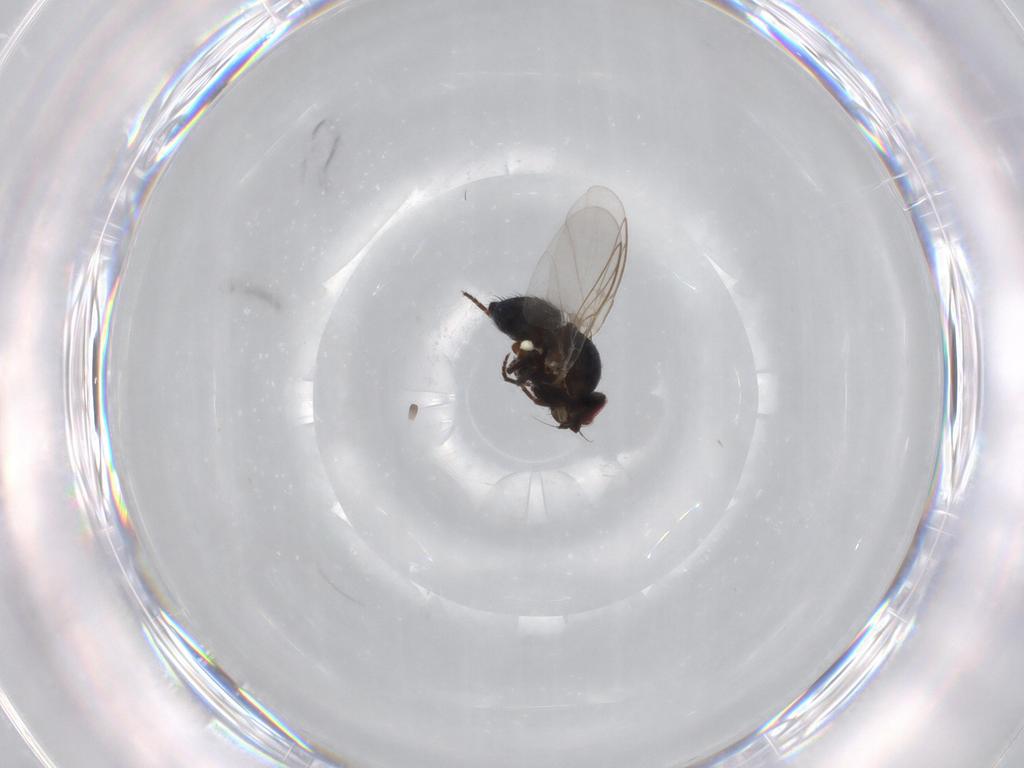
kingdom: Animalia
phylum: Arthropoda
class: Insecta
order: Diptera
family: Ceratopogonidae
